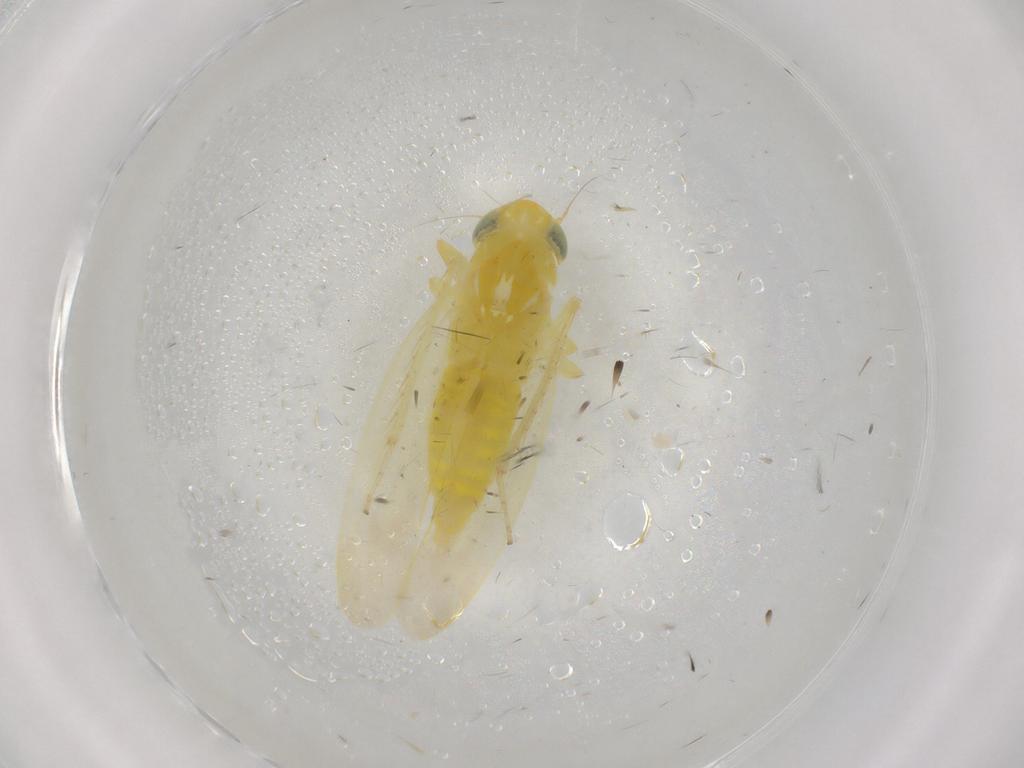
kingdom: Animalia
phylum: Arthropoda
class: Insecta
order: Hemiptera
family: Cicadellidae
